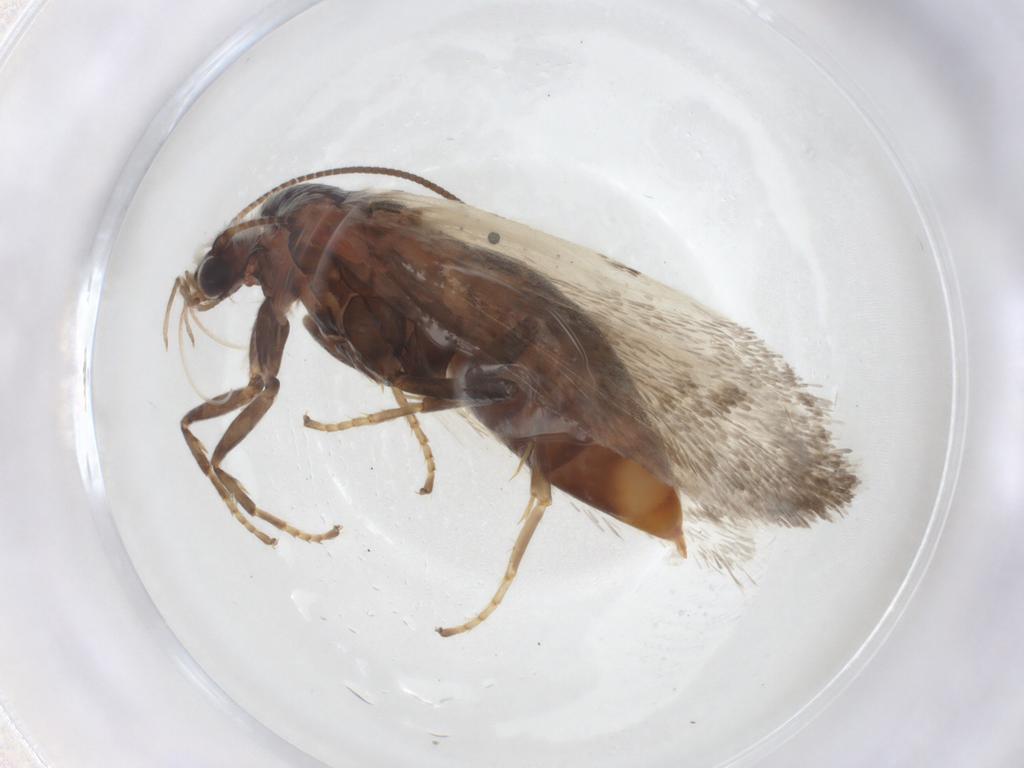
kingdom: Animalia
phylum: Arthropoda
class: Insecta
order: Lepidoptera
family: Prodoxidae
